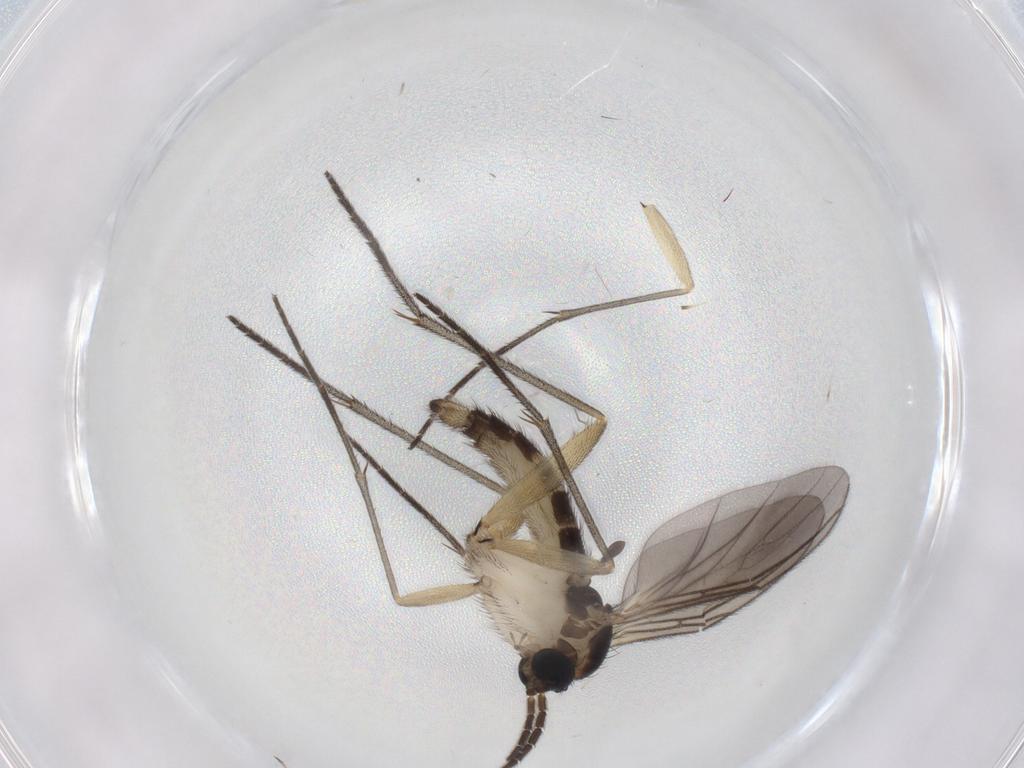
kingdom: Animalia
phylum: Arthropoda
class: Insecta
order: Diptera
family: Sciaridae
